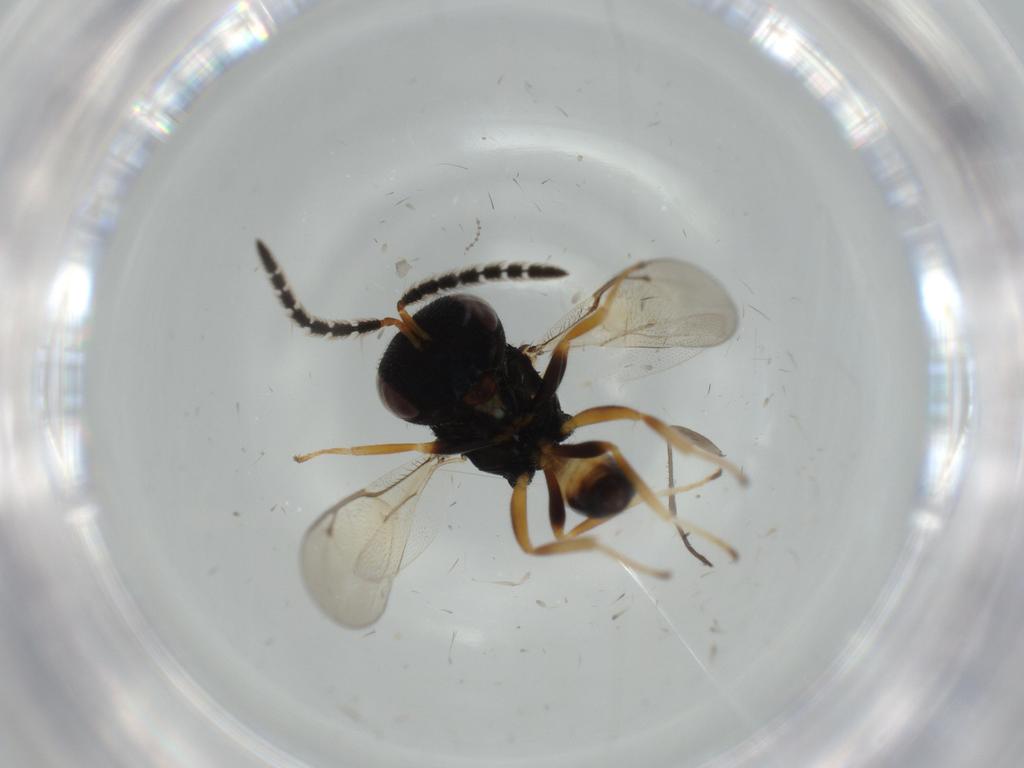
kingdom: Animalia
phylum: Arthropoda
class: Insecta
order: Hymenoptera
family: Pteromalidae
